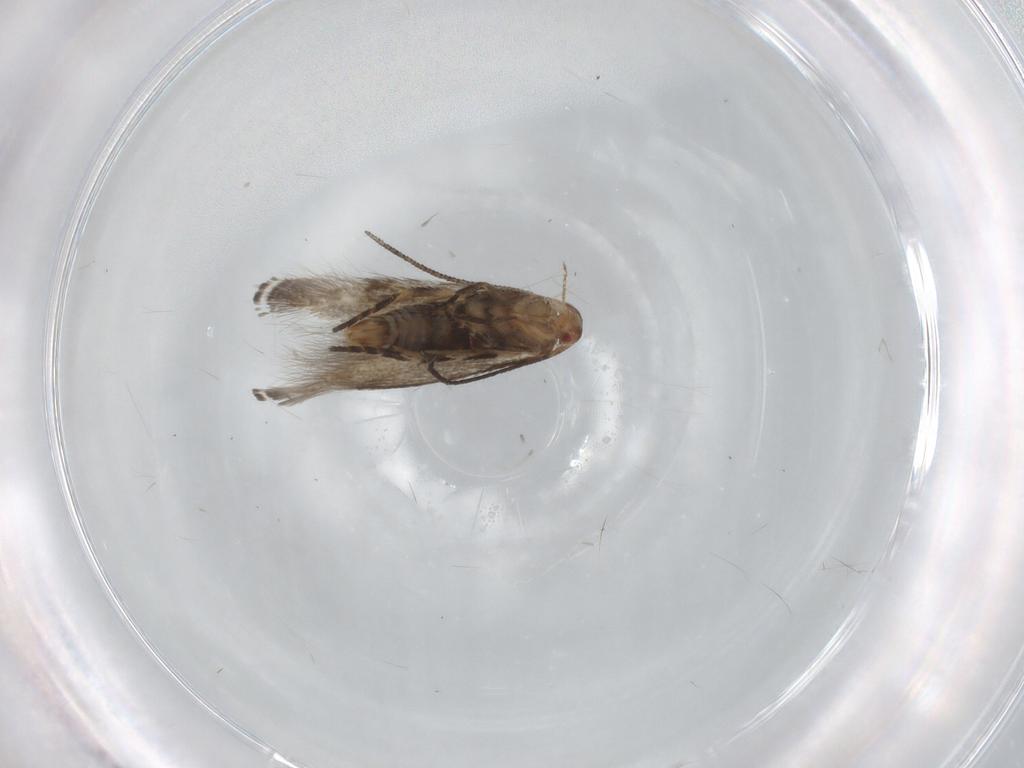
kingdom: Animalia
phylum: Arthropoda
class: Insecta
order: Lepidoptera
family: Momphidae
